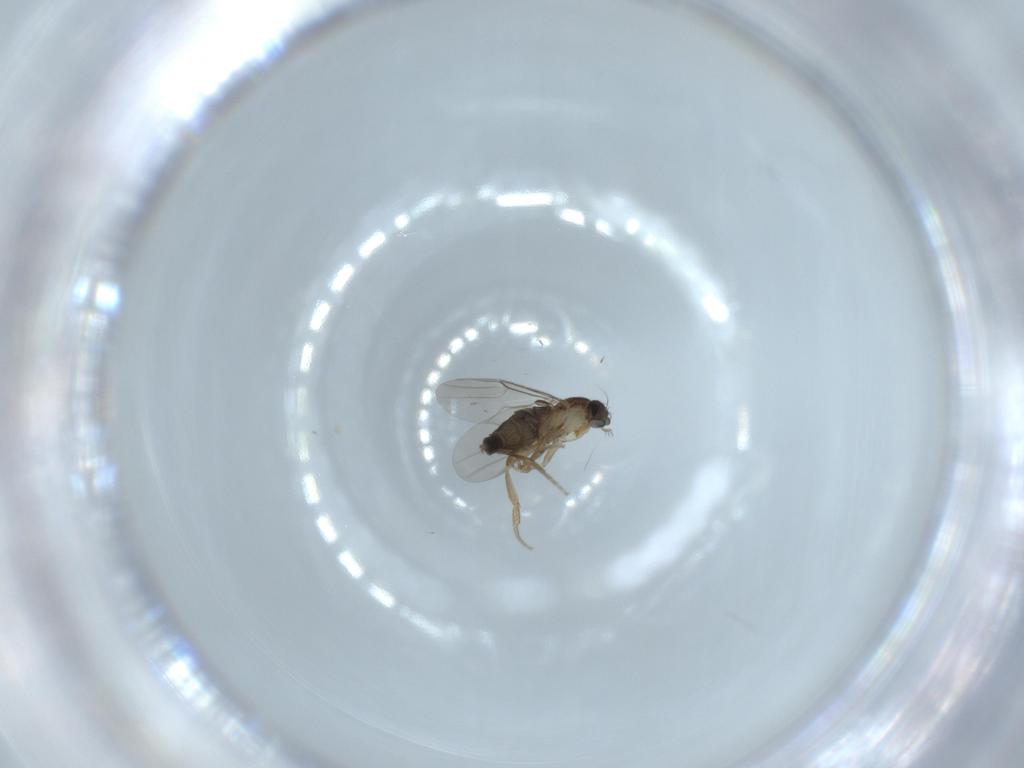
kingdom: Animalia
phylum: Arthropoda
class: Insecta
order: Diptera
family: Phoridae
